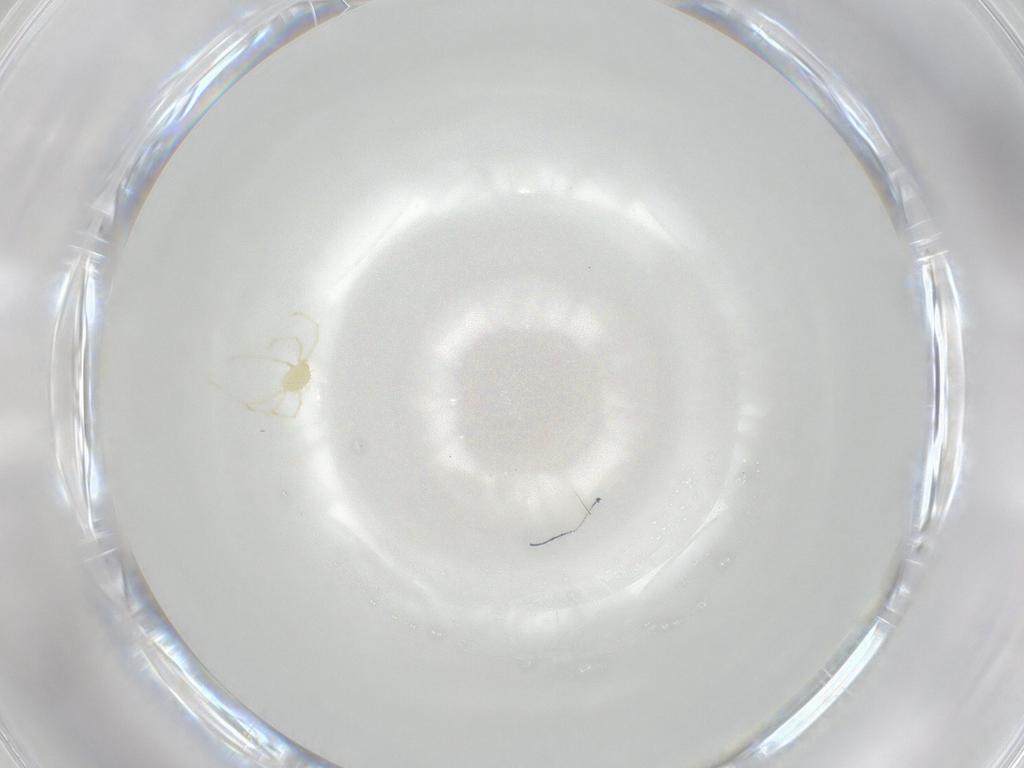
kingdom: Animalia
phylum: Arthropoda
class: Arachnida
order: Trombidiformes
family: Erythraeidae
